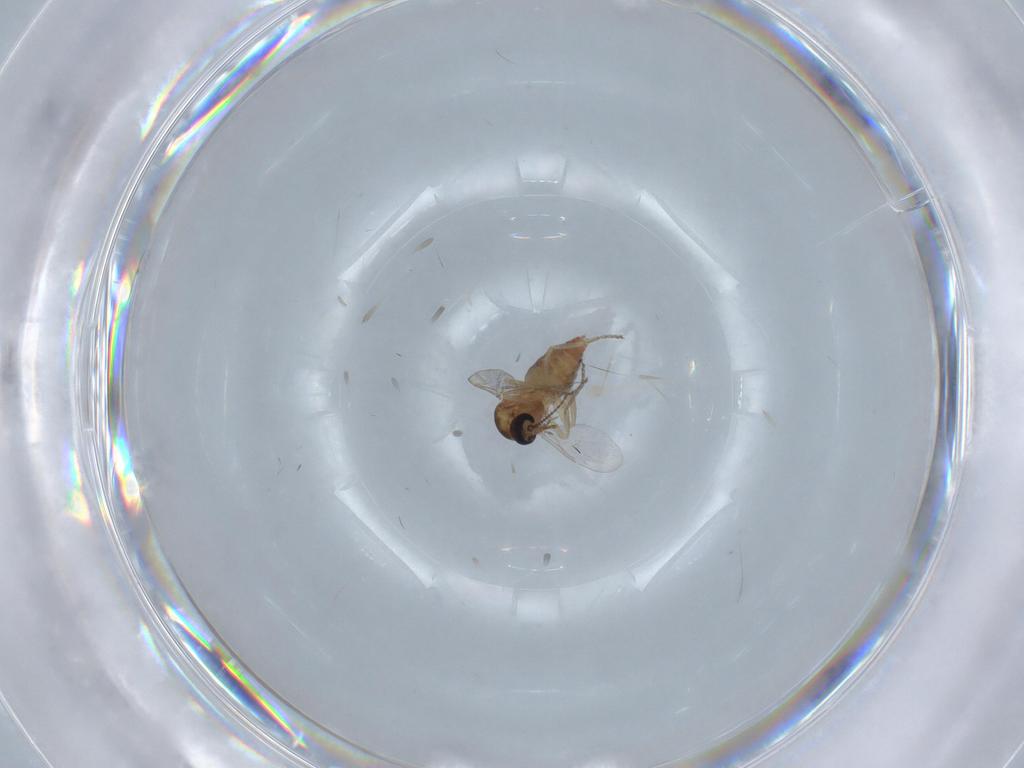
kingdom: Animalia
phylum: Arthropoda
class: Insecta
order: Diptera
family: Ceratopogonidae
